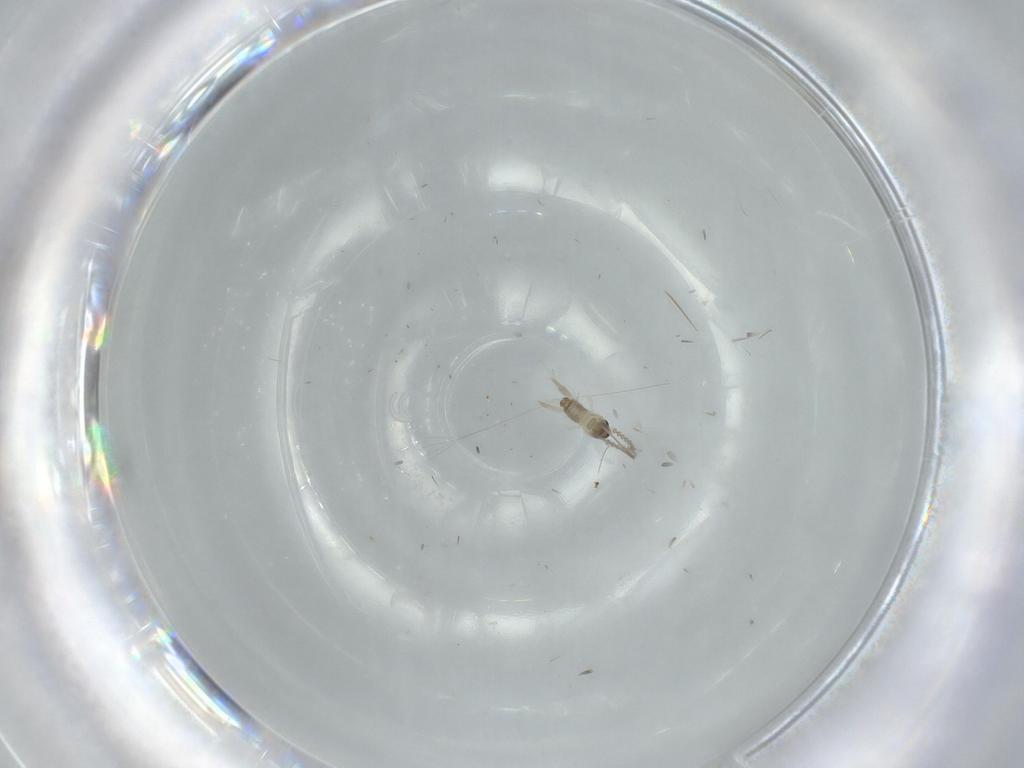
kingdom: Animalia
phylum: Arthropoda
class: Insecta
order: Diptera
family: Cecidomyiidae
